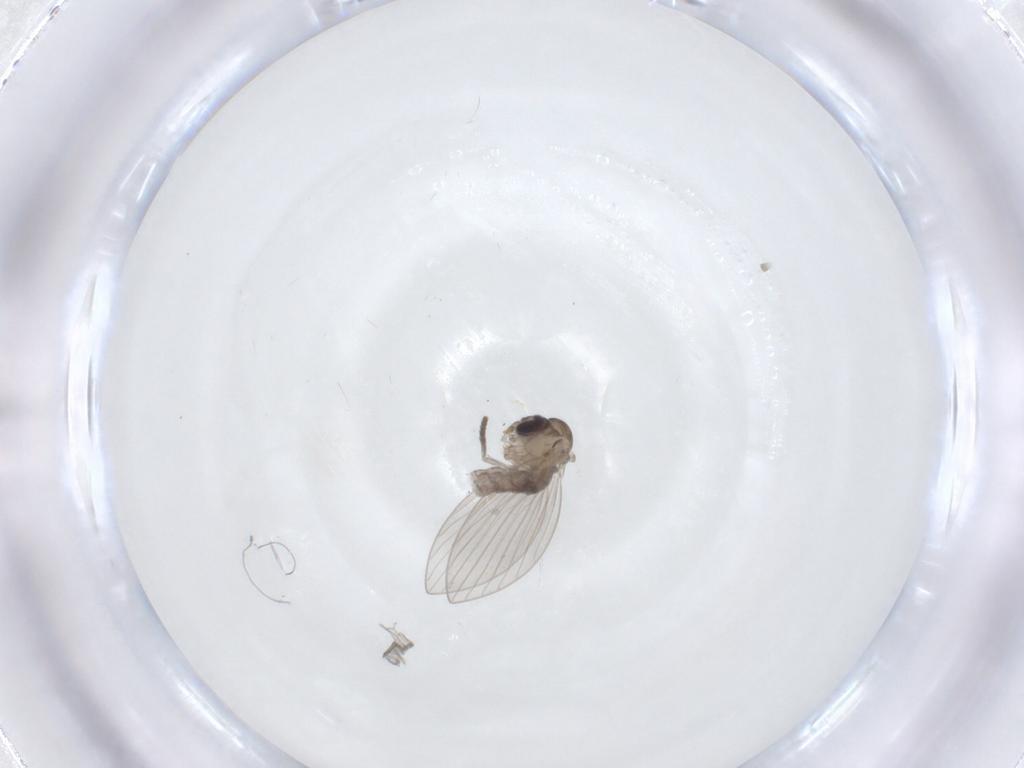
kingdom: Animalia
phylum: Arthropoda
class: Insecta
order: Diptera
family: Psychodidae
